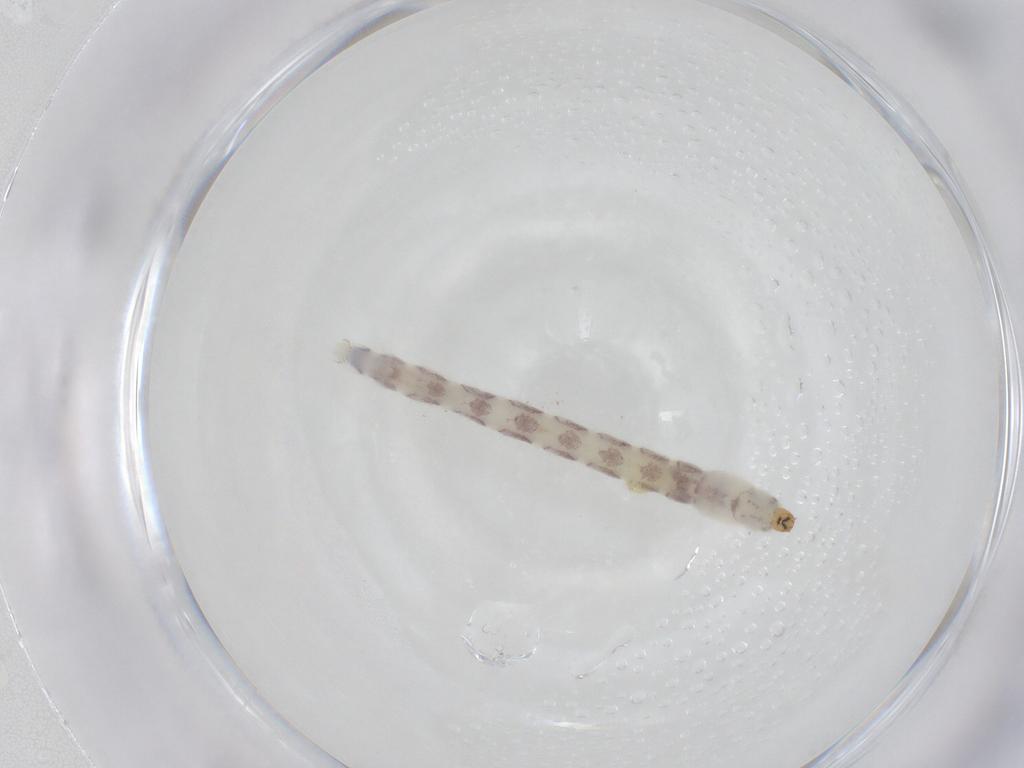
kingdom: Animalia
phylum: Arthropoda
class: Insecta
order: Diptera
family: Chironomidae
